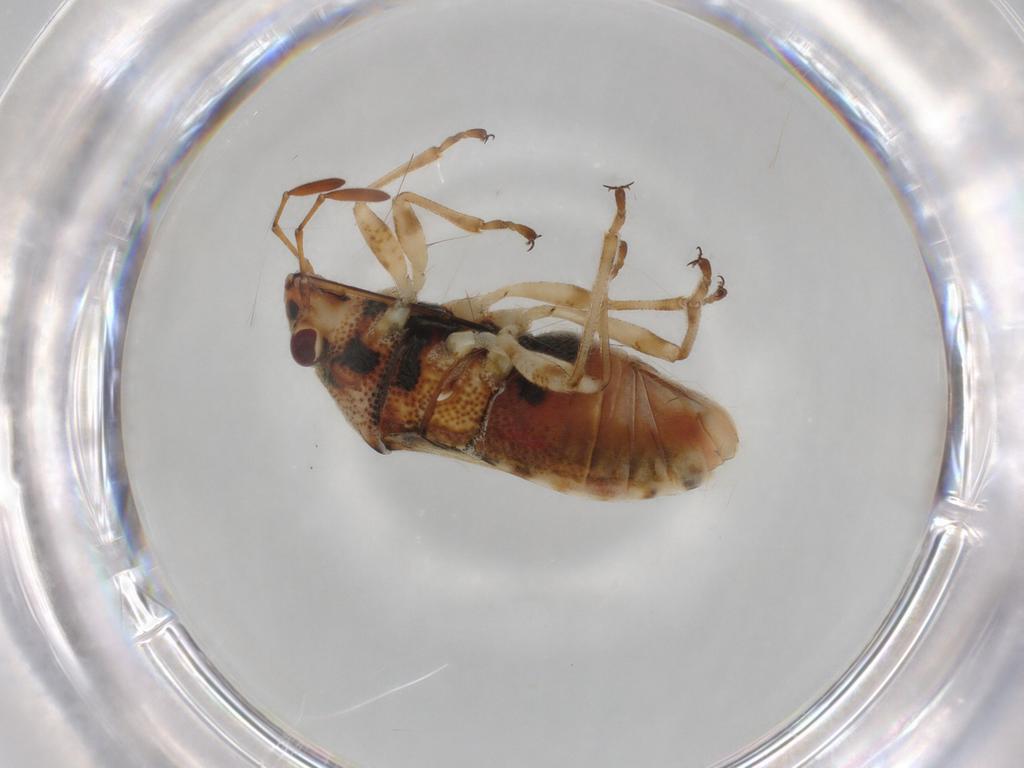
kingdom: Animalia
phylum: Arthropoda
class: Insecta
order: Hemiptera
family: Lygaeidae
